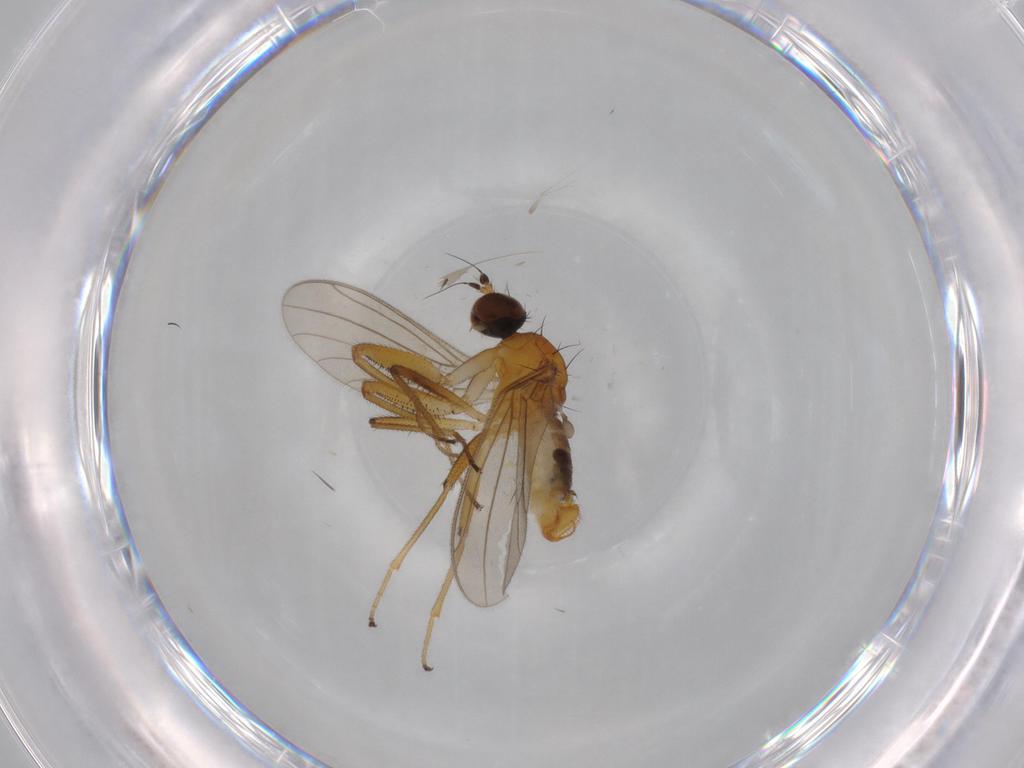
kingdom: Animalia
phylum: Arthropoda
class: Insecta
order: Diptera
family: Empididae
